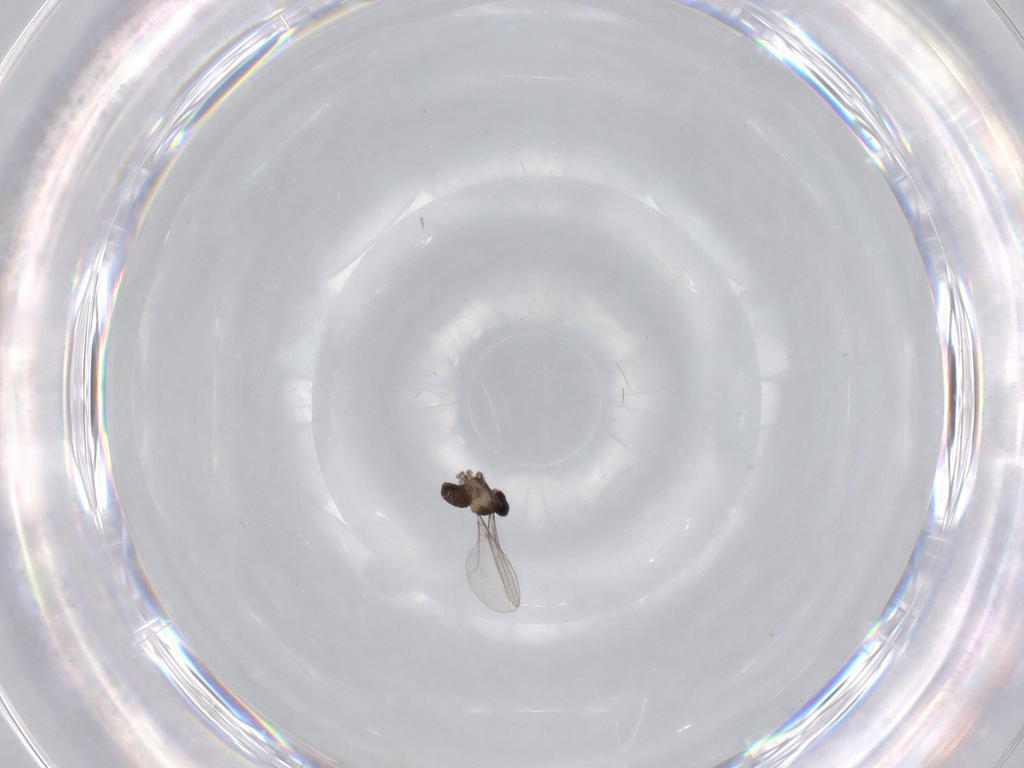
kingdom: Animalia
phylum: Arthropoda
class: Insecta
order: Diptera
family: Cecidomyiidae
